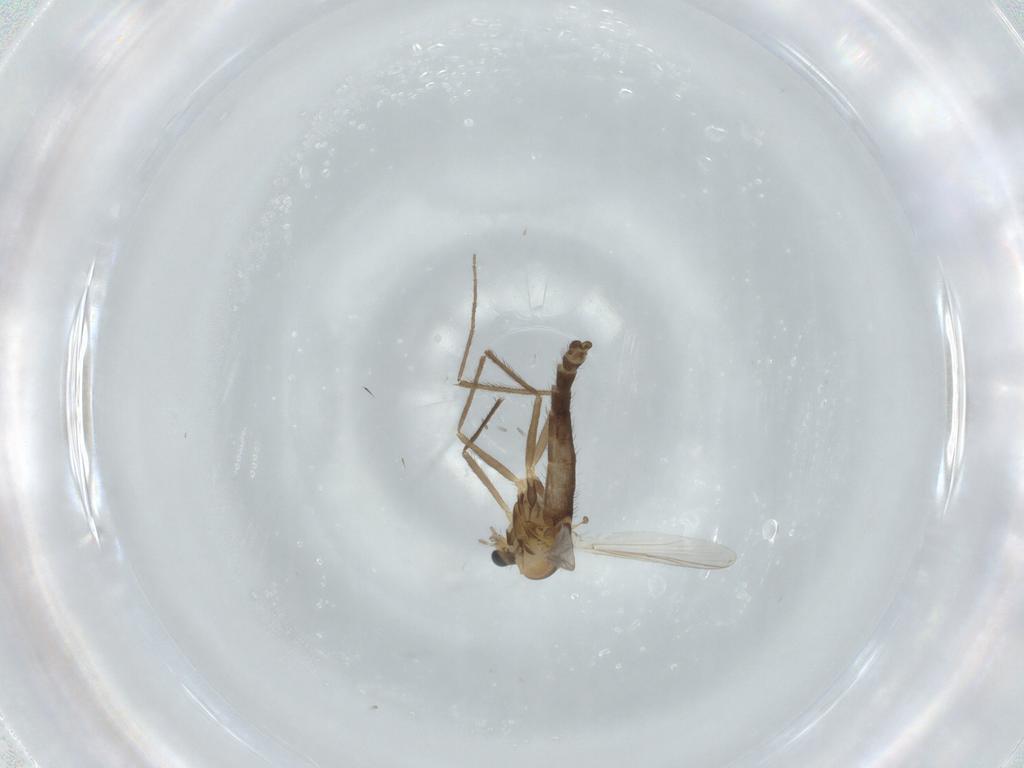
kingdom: Animalia
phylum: Arthropoda
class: Insecta
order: Diptera
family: Chironomidae
